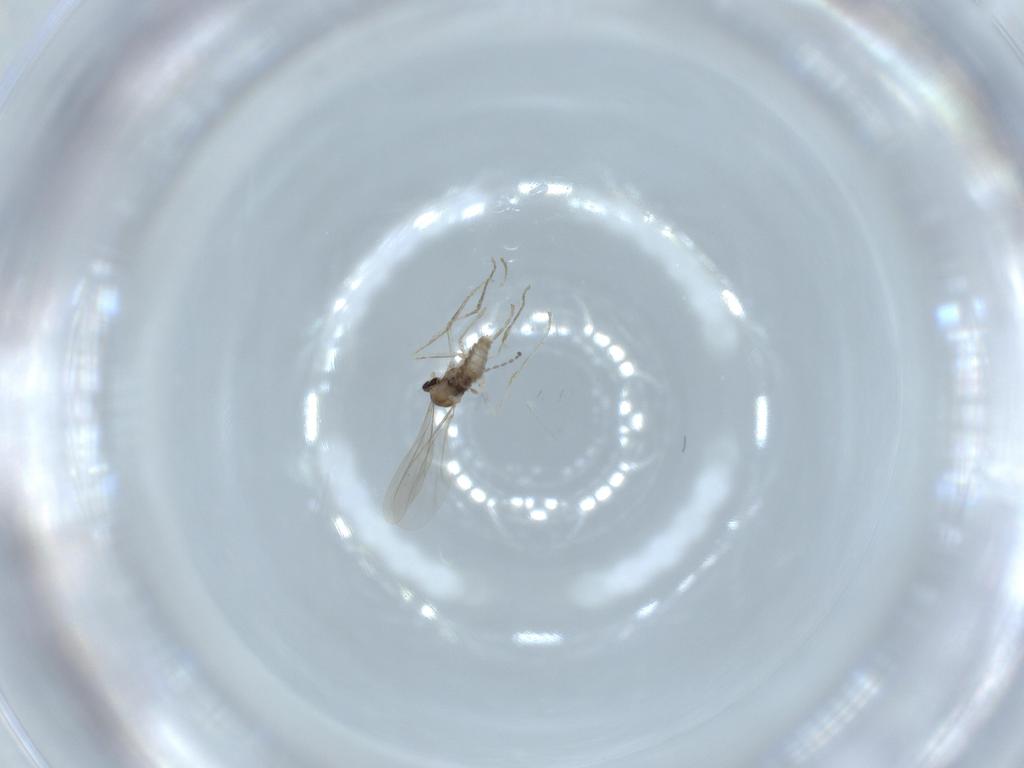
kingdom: Animalia
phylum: Arthropoda
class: Insecta
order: Diptera
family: Cecidomyiidae
